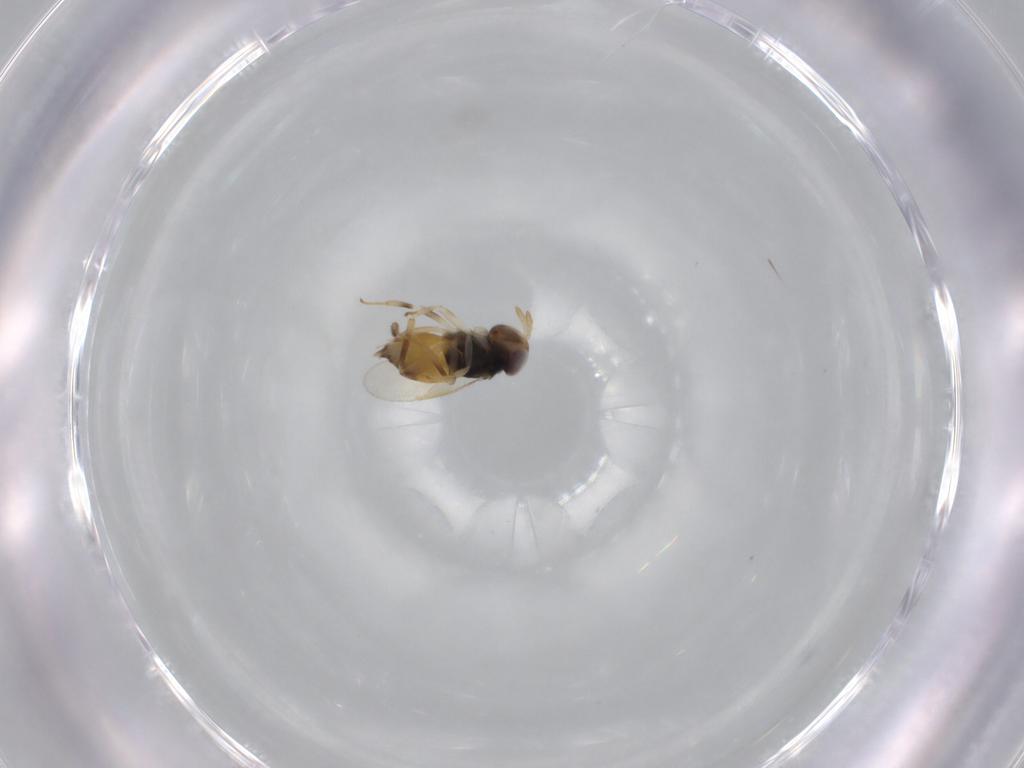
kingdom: Animalia
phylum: Arthropoda
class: Insecta
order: Hymenoptera
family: Aphelinidae
